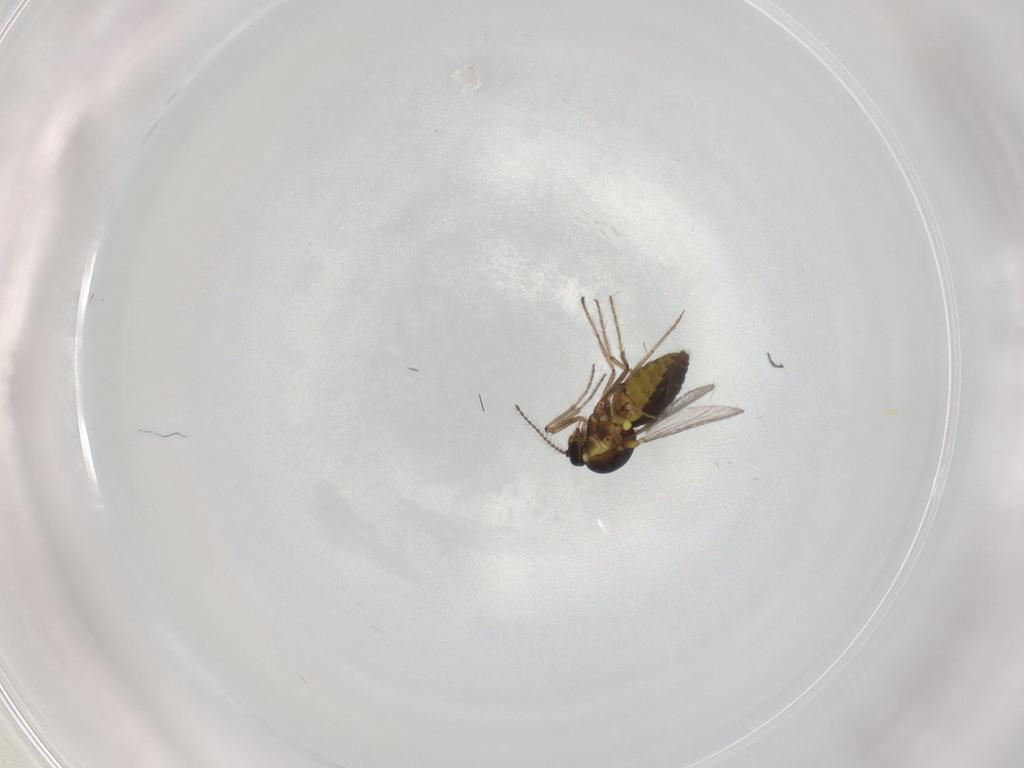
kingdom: Animalia
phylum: Arthropoda
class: Insecta
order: Diptera
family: Ceratopogonidae
